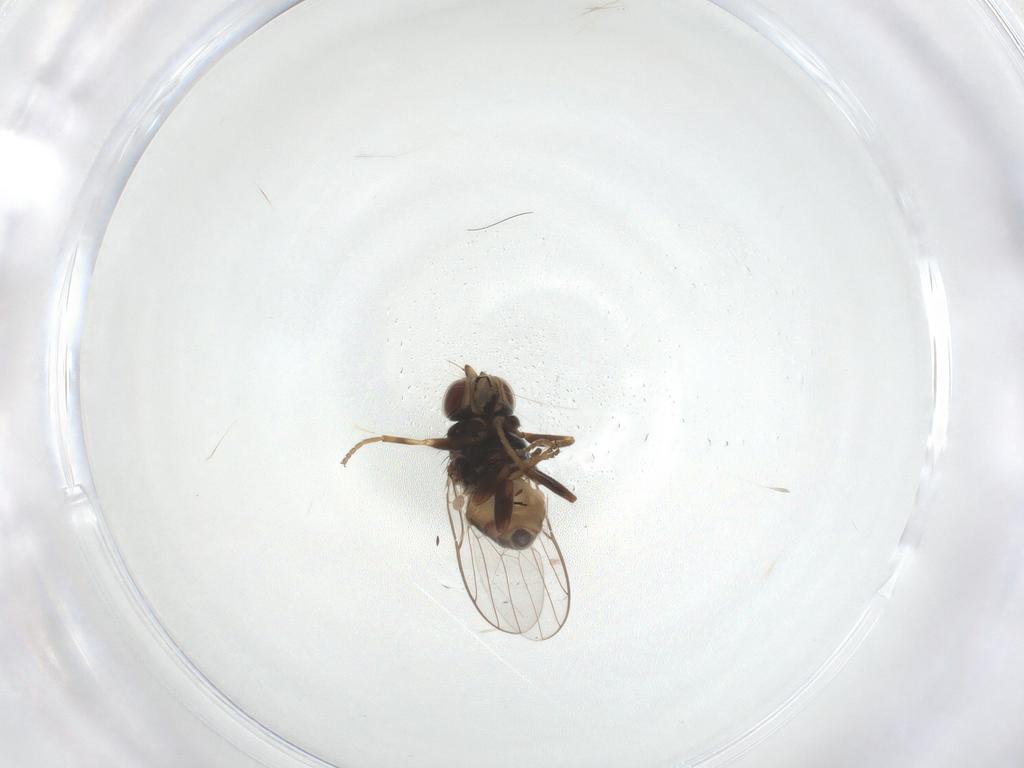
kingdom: Animalia
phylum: Arthropoda
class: Insecta
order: Diptera
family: Chloropidae
